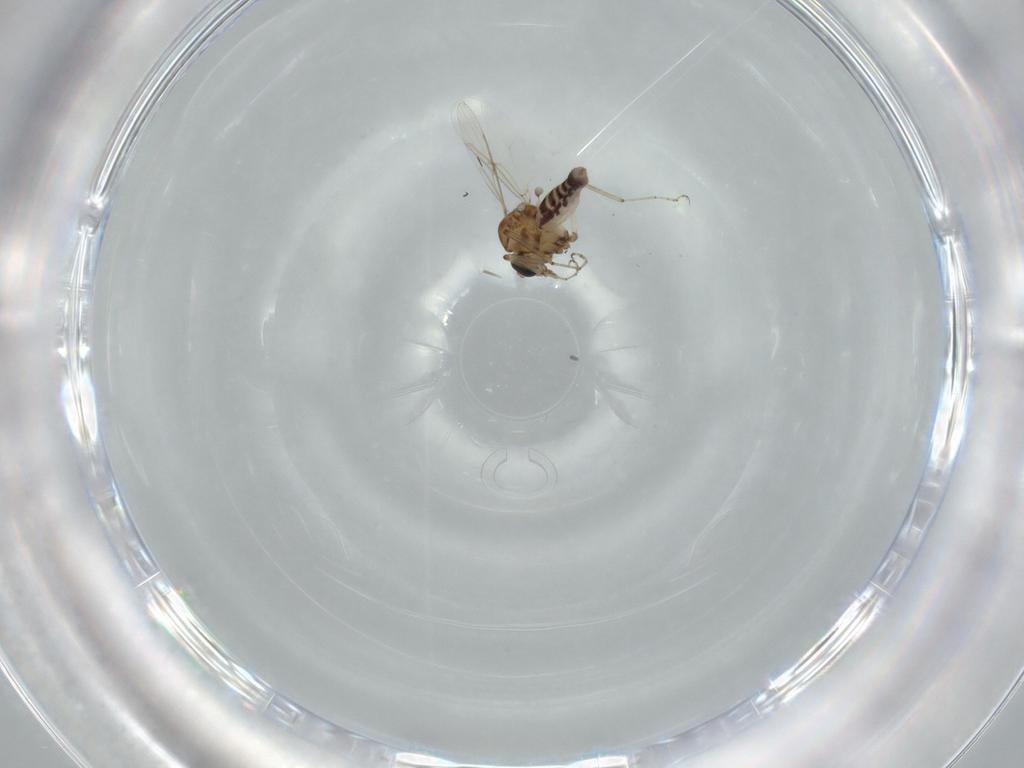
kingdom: Animalia
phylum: Arthropoda
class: Insecta
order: Diptera
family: Ceratopogonidae
